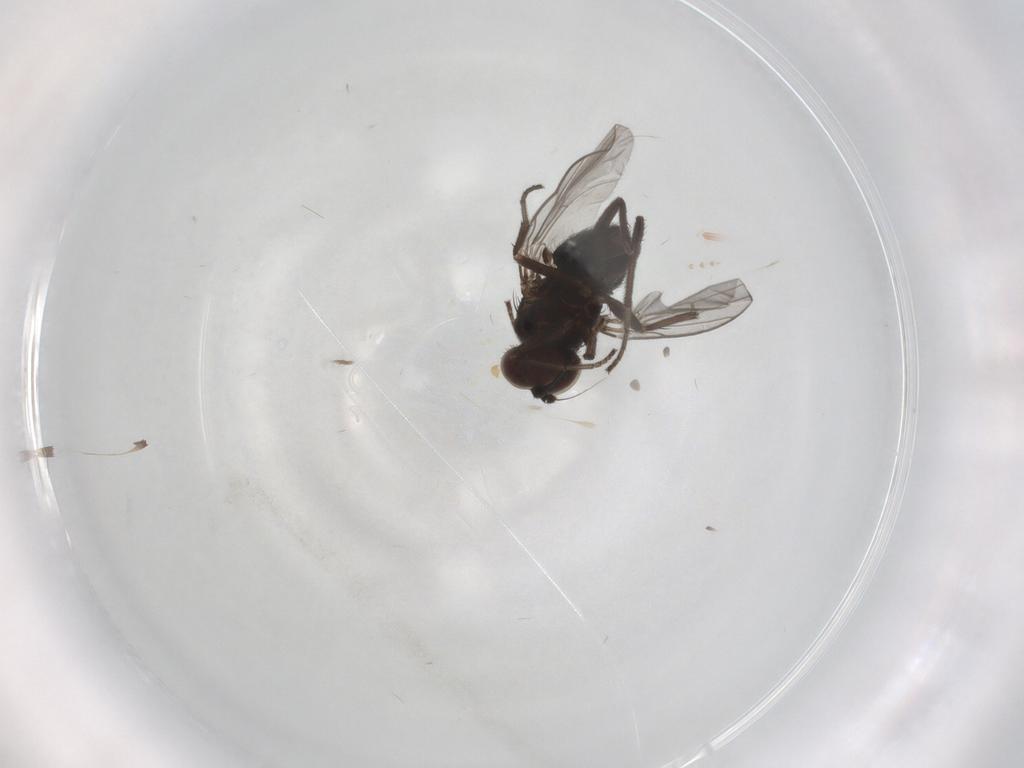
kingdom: Animalia
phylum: Arthropoda
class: Insecta
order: Diptera
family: Dolichopodidae
